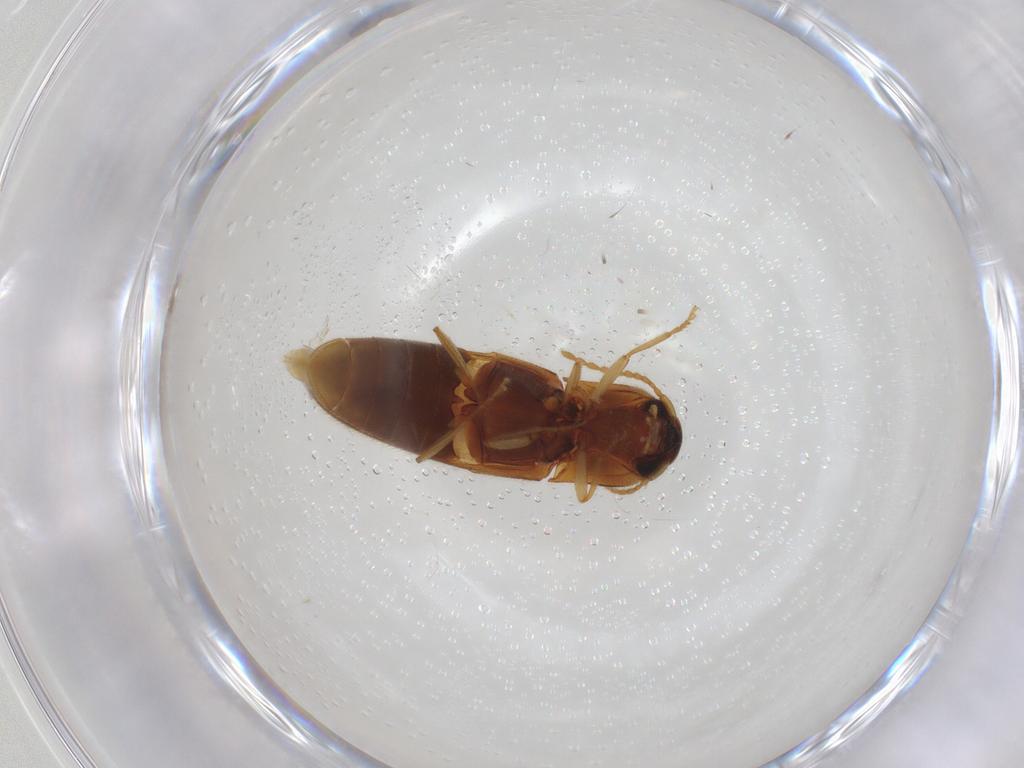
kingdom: Animalia
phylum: Arthropoda
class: Insecta
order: Coleoptera
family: Elateridae
